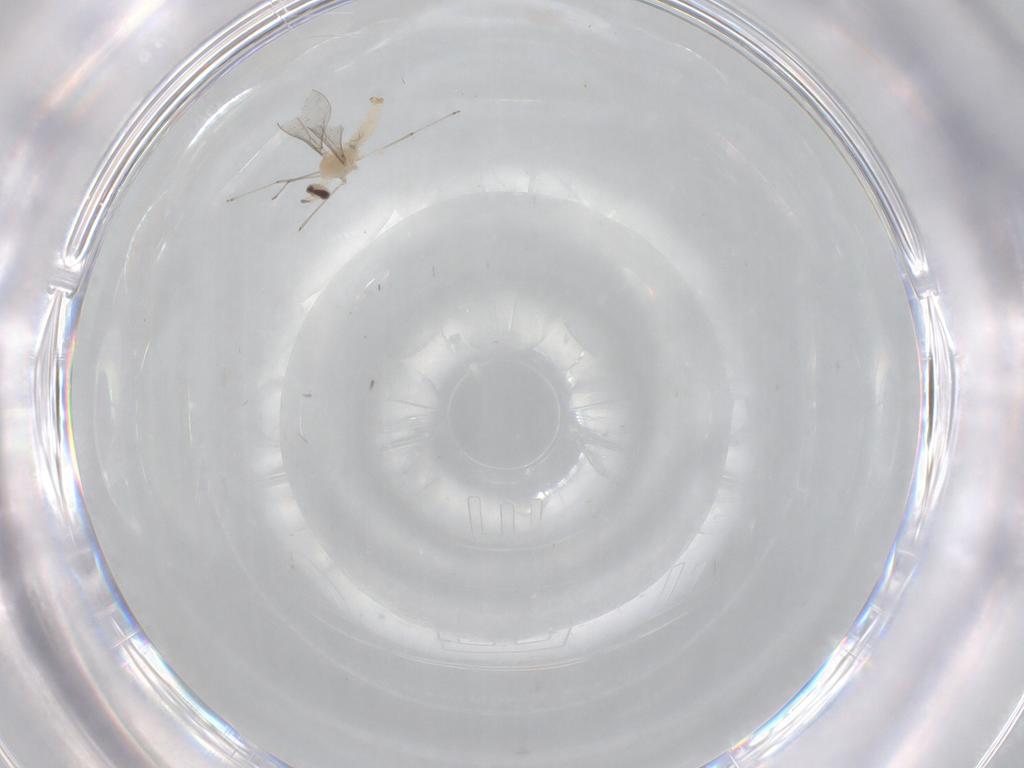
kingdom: Animalia
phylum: Arthropoda
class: Insecta
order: Diptera
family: Cecidomyiidae
